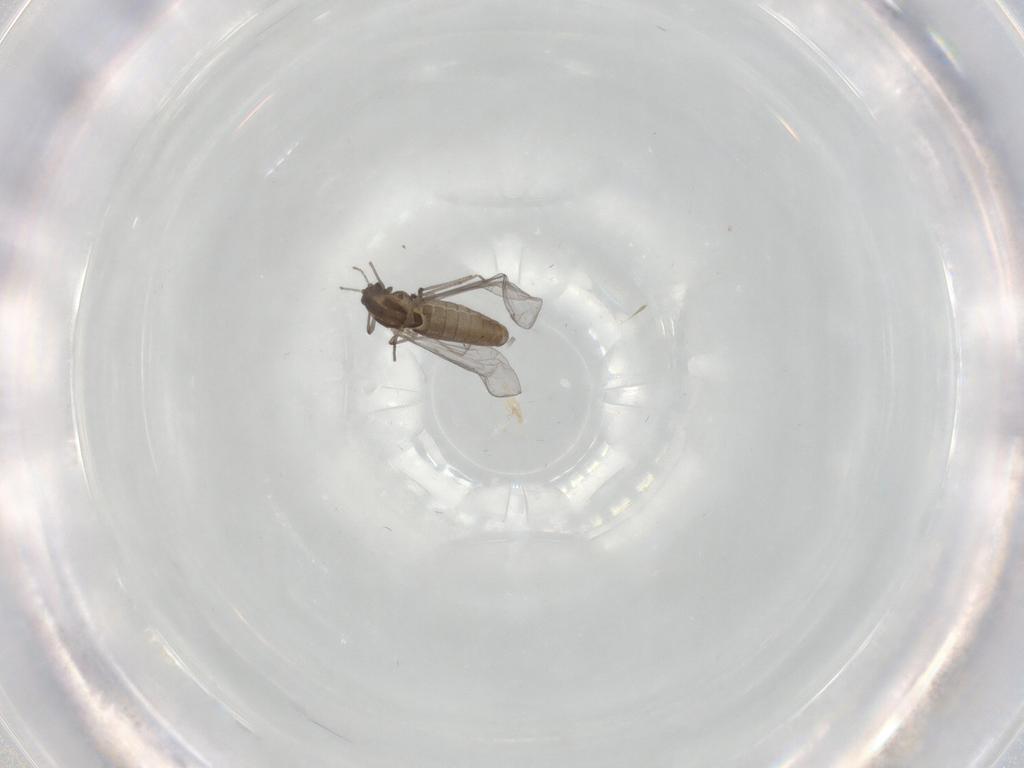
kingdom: Animalia
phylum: Arthropoda
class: Insecta
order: Diptera
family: Chironomidae
